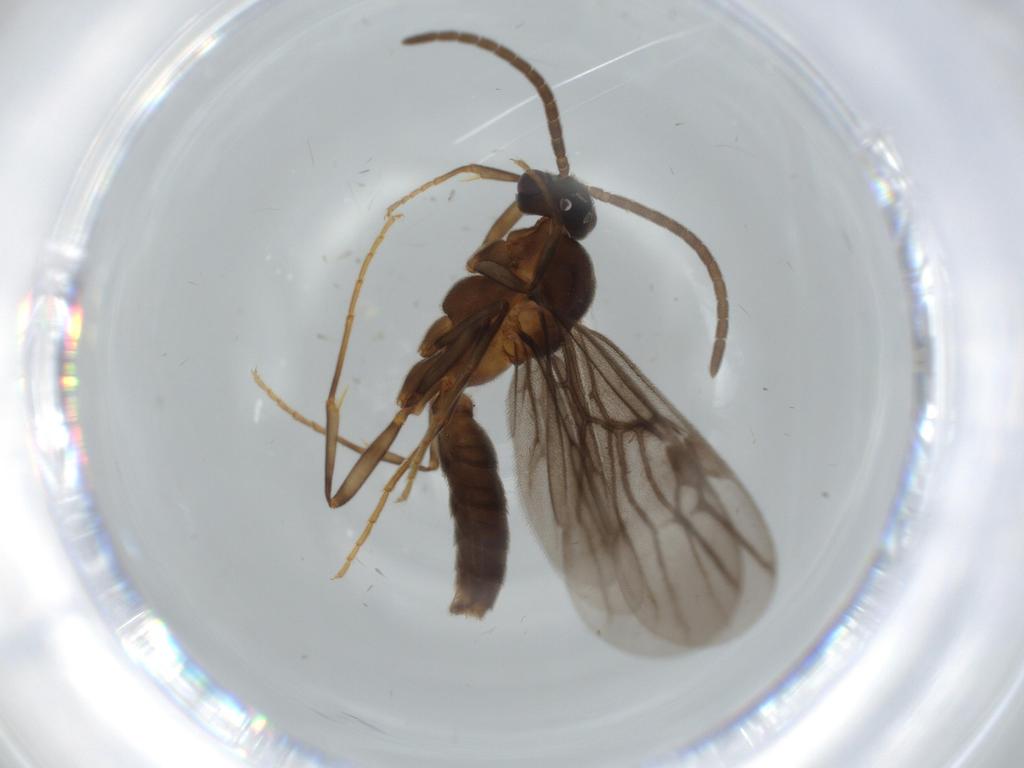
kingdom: Animalia
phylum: Arthropoda
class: Insecta
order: Hymenoptera
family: Formicidae
